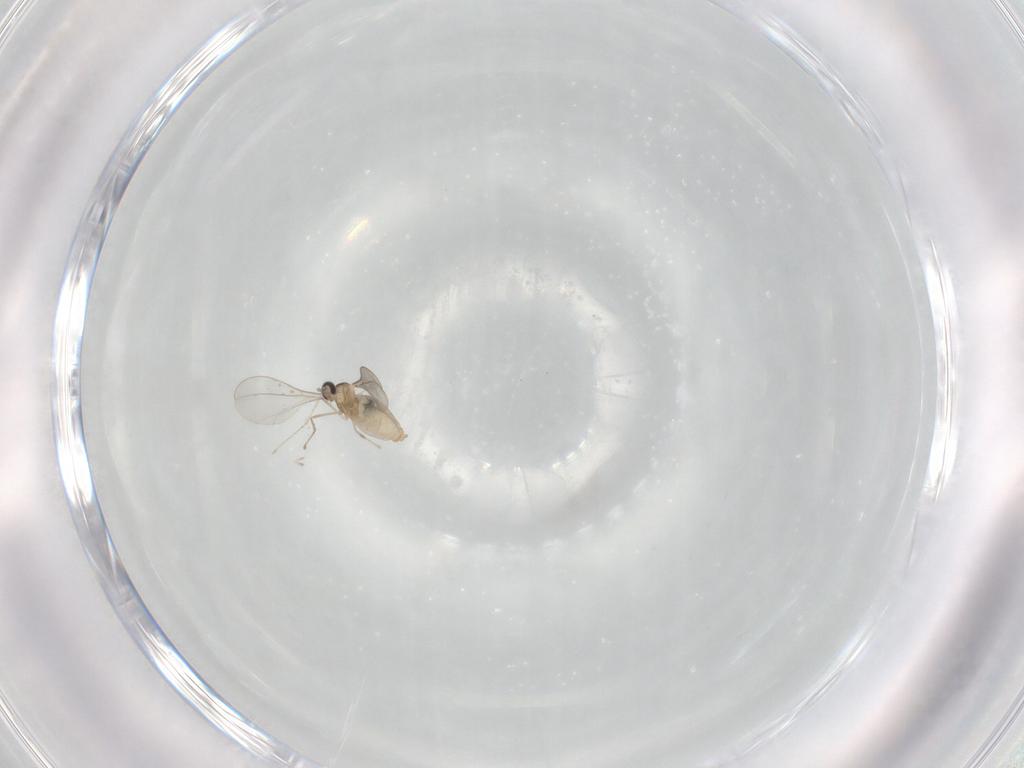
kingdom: Animalia
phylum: Arthropoda
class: Insecta
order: Diptera
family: Cecidomyiidae
